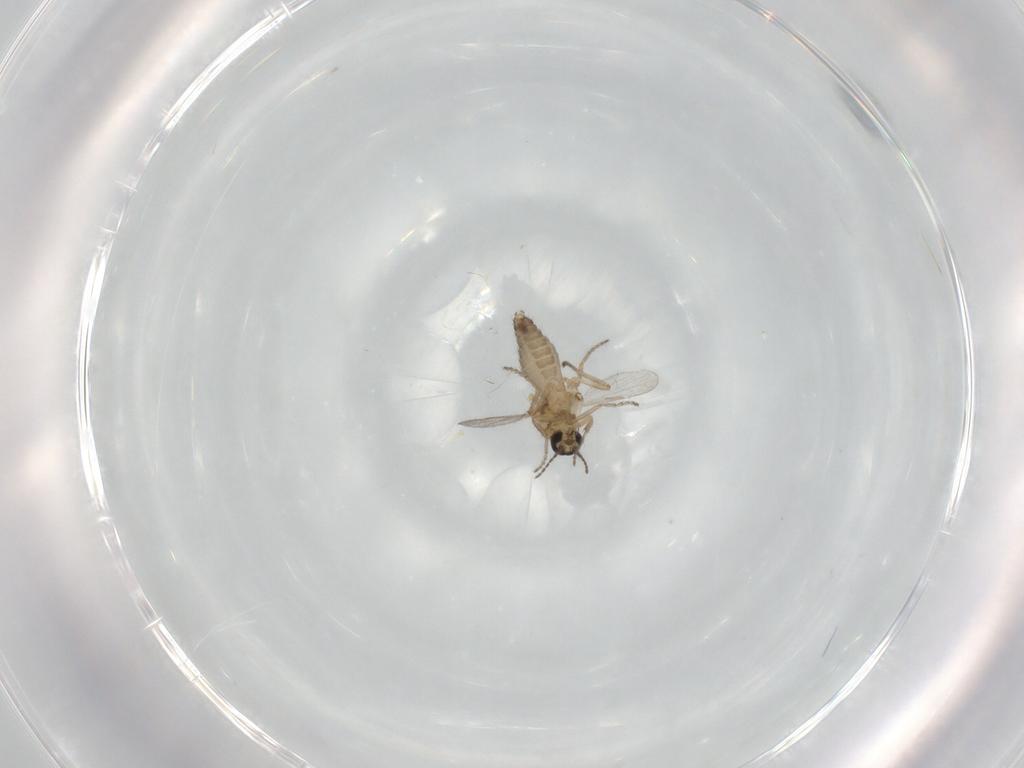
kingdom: Animalia
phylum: Arthropoda
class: Insecta
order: Diptera
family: Ceratopogonidae
